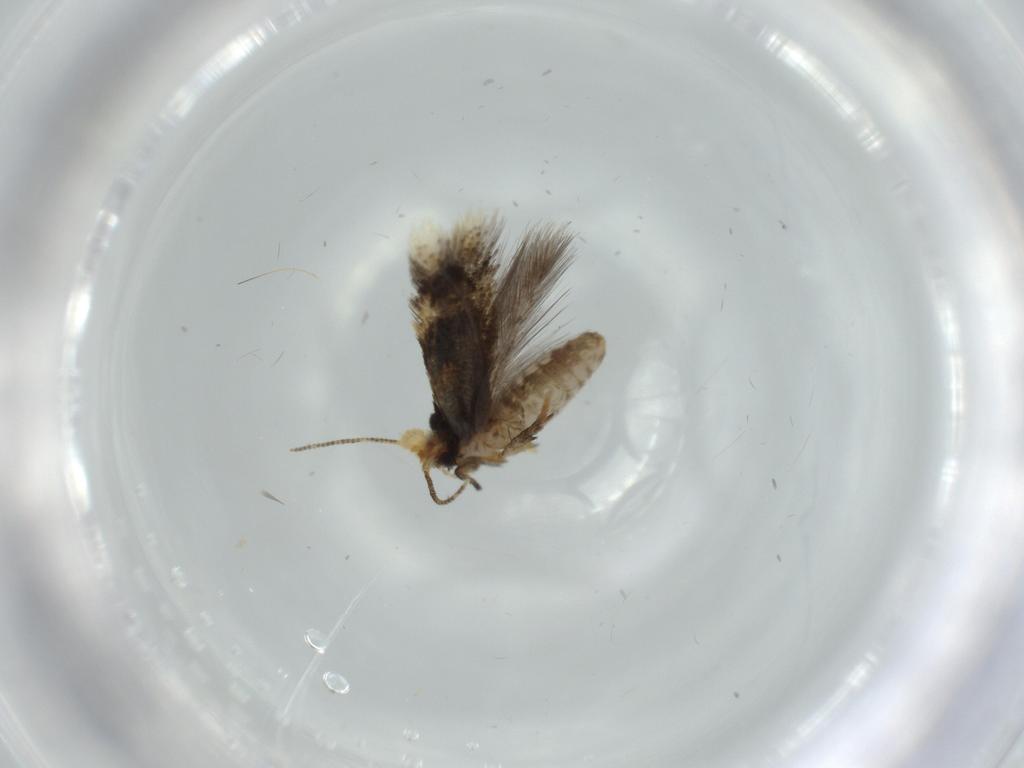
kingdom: Animalia
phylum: Arthropoda
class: Insecta
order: Lepidoptera
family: Nepticulidae
